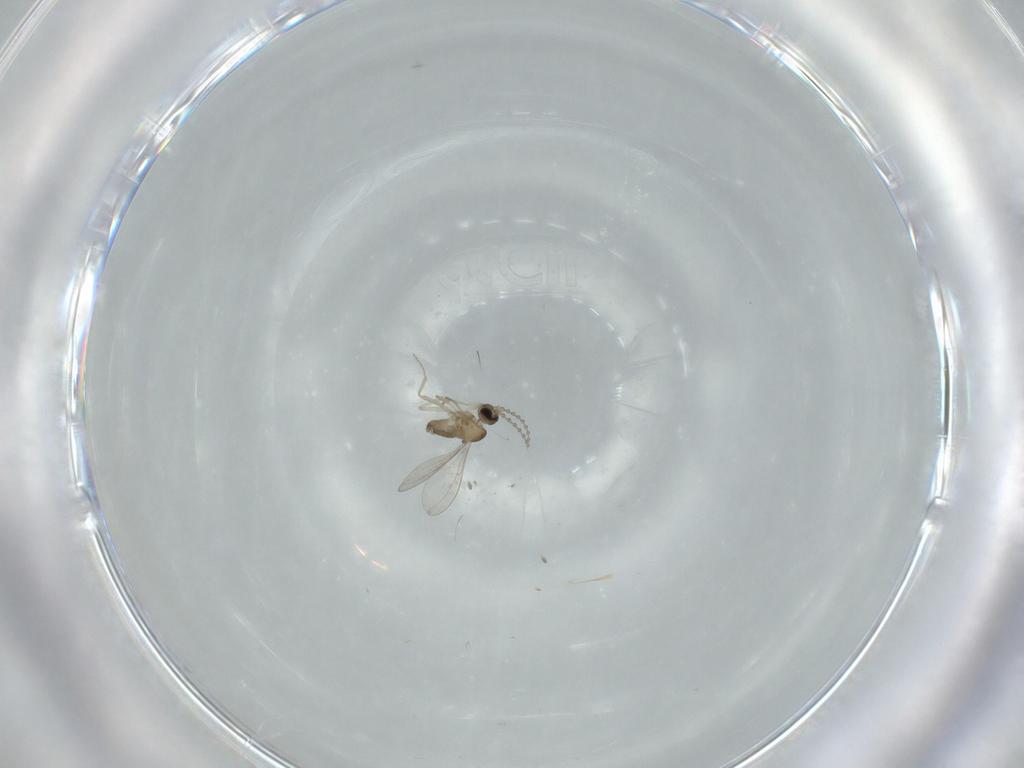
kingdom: Animalia
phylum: Arthropoda
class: Insecta
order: Diptera
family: Cecidomyiidae
